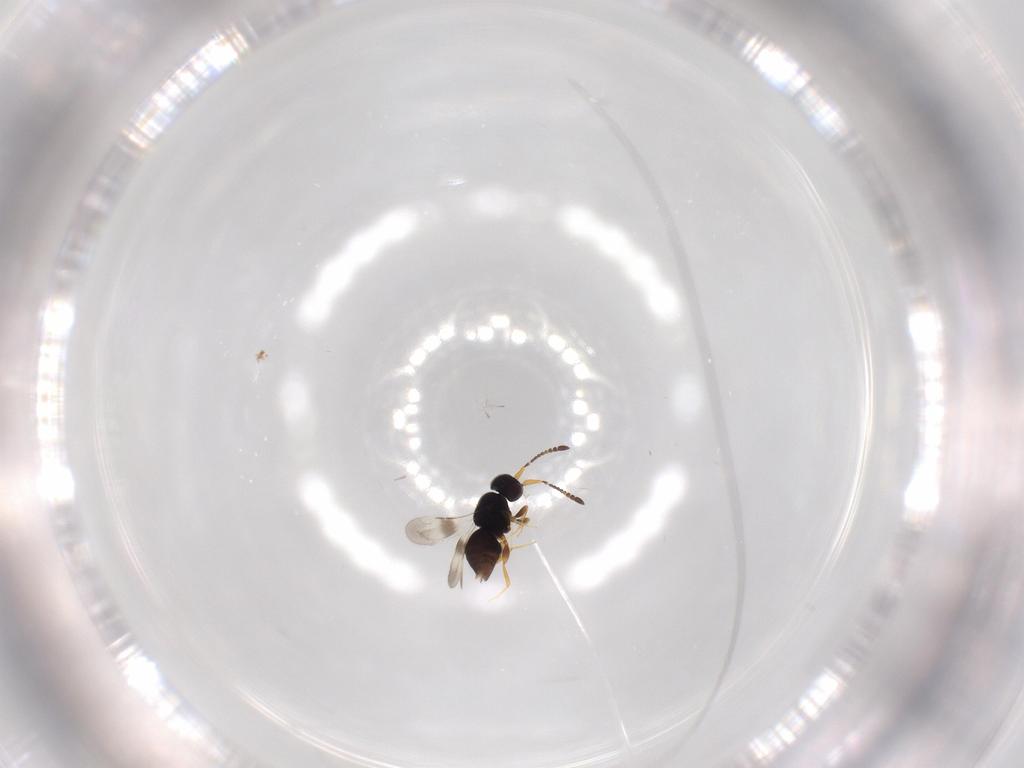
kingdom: Animalia
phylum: Arthropoda
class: Insecta
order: Hymenoptera
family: Ceraphronidae
